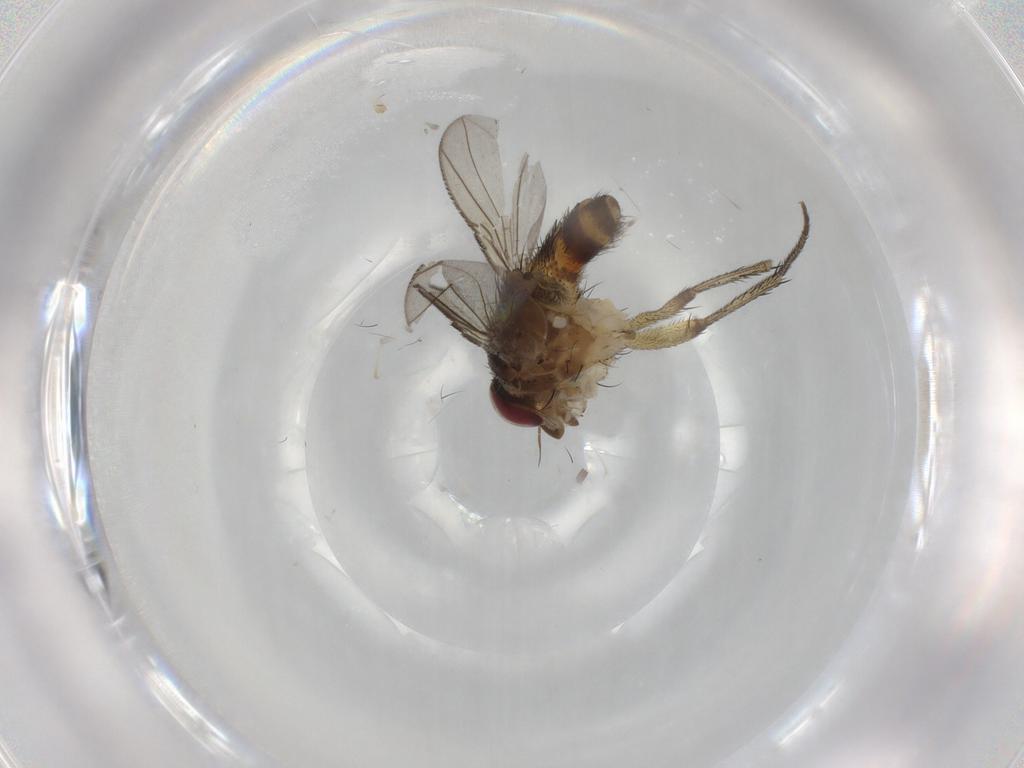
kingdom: Animalia
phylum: Arthropoda
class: Insecta
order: Diptera
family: Tachinidae
